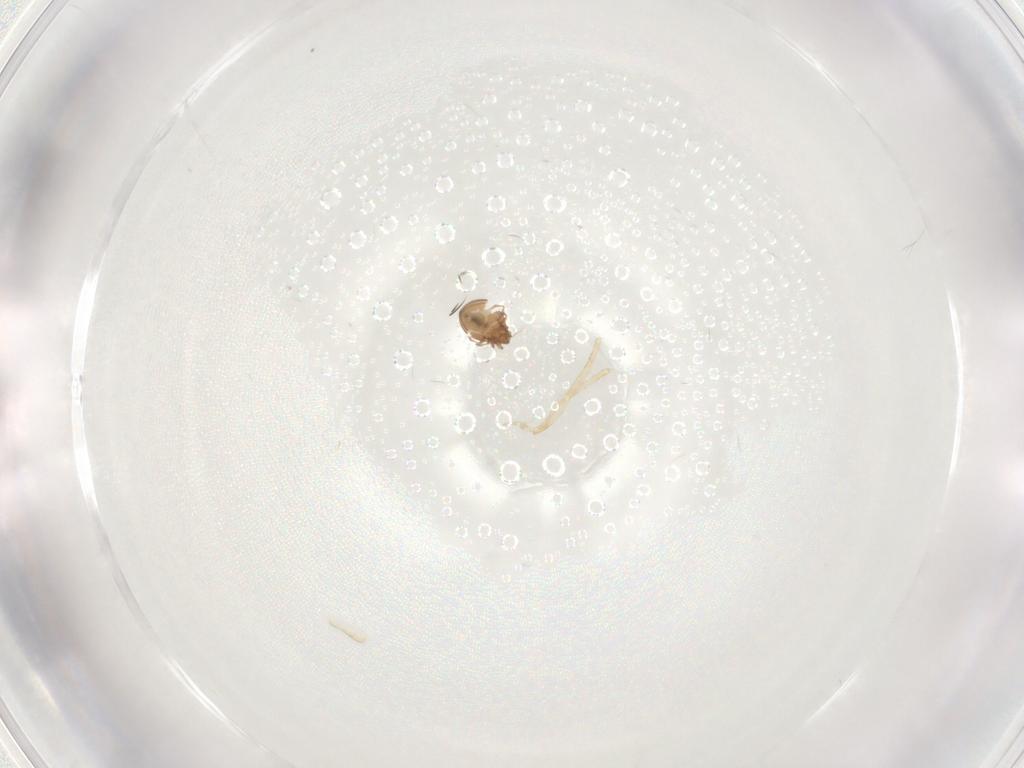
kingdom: Animalia
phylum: Arthropoda
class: Arachnida
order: Sarcoptiformes
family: Scheloribatidae
